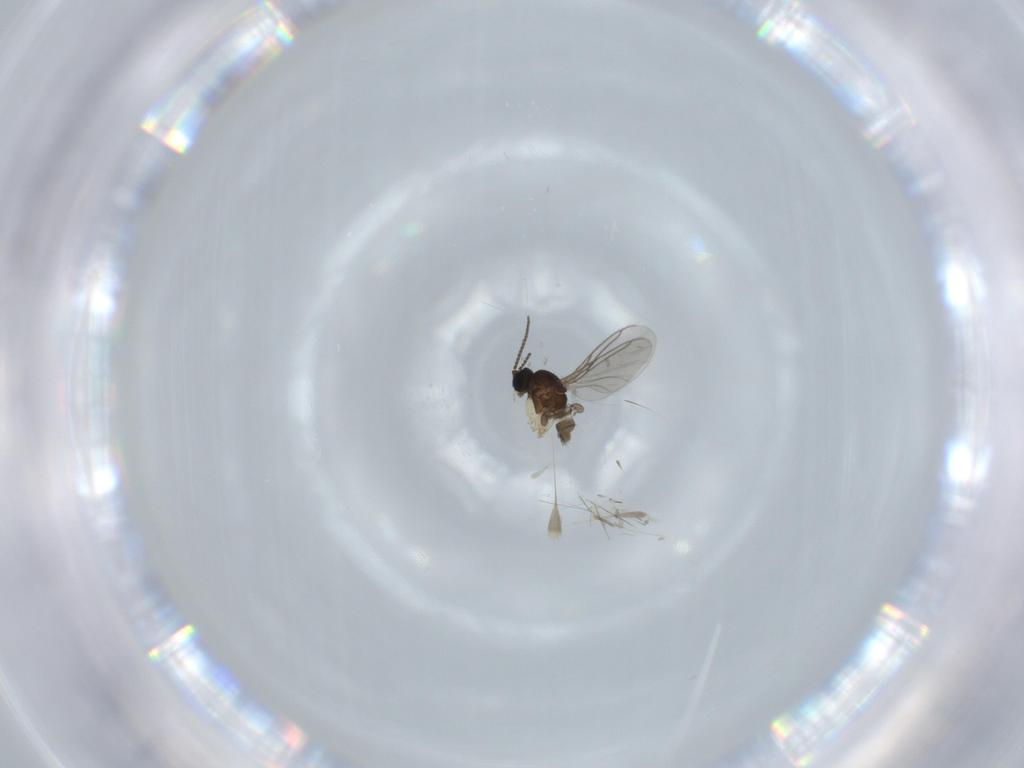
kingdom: Animalia
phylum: Arthropoda
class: Insecta
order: Diptera
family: Sciaridae
